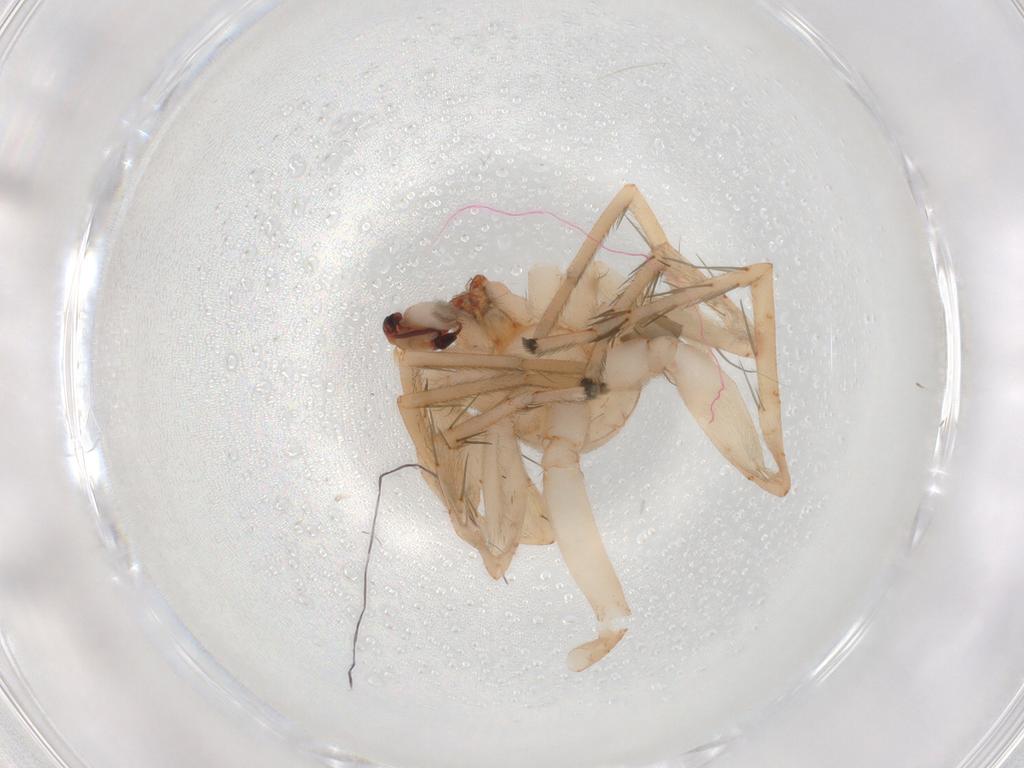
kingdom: Animalia
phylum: Arthropoda
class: Arachnida
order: Araneae
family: Clubionidae
